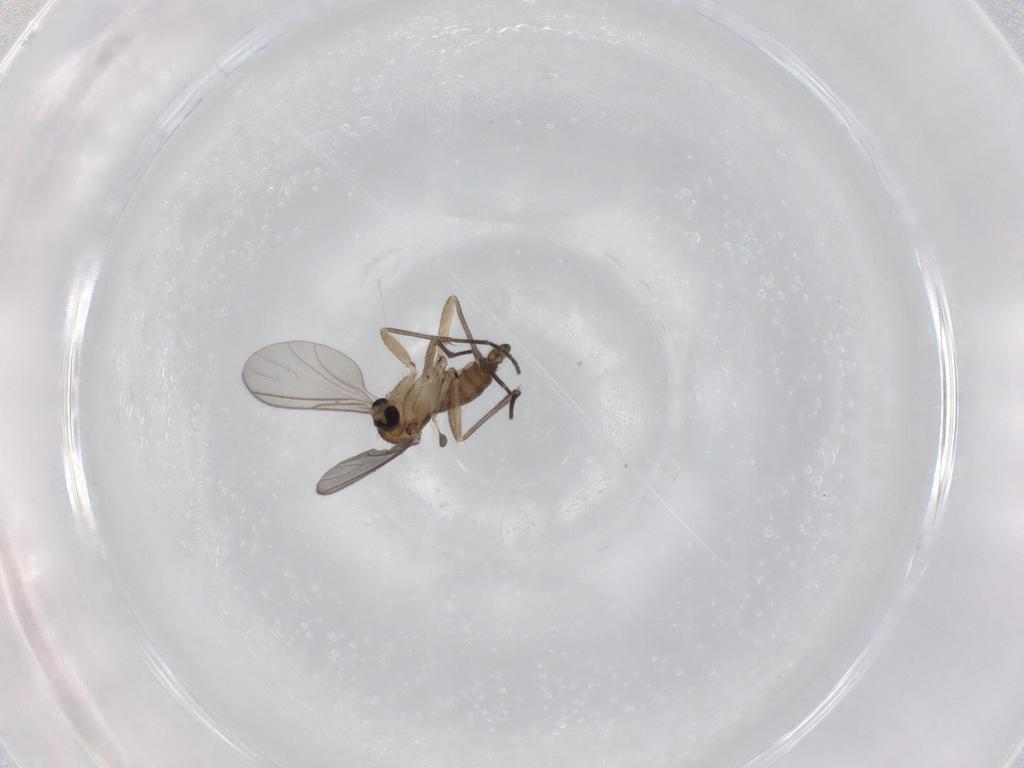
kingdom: Animalia
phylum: Arthropoda
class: Insecta
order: Diptera
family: Sciaridae
